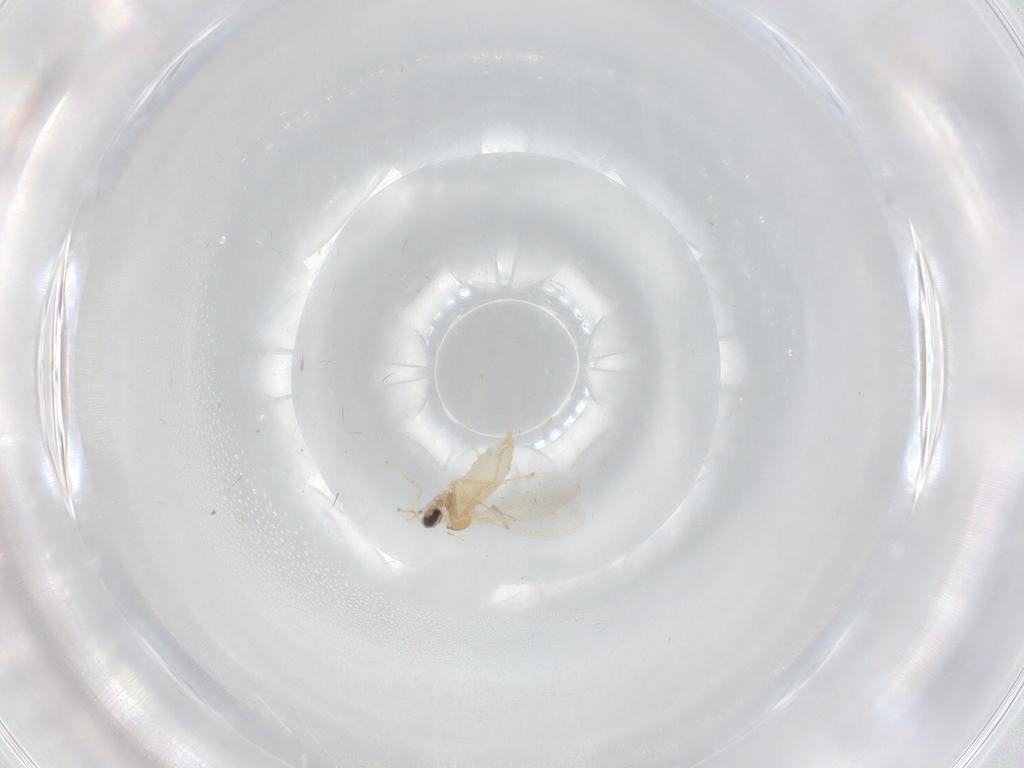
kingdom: Animalia
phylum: Arthropoda
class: Insecta
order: Diptera
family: Cecidomyiidae
